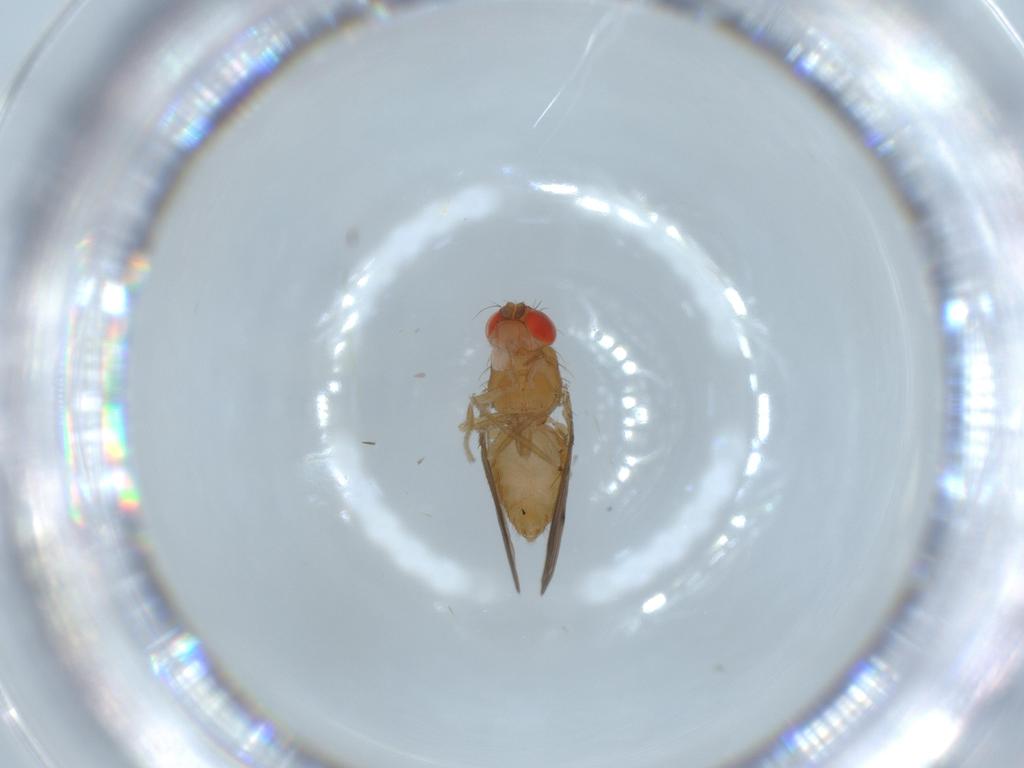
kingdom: Animalia
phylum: Arthropoda
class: Insecta
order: Diptera
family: Drosophilidae
